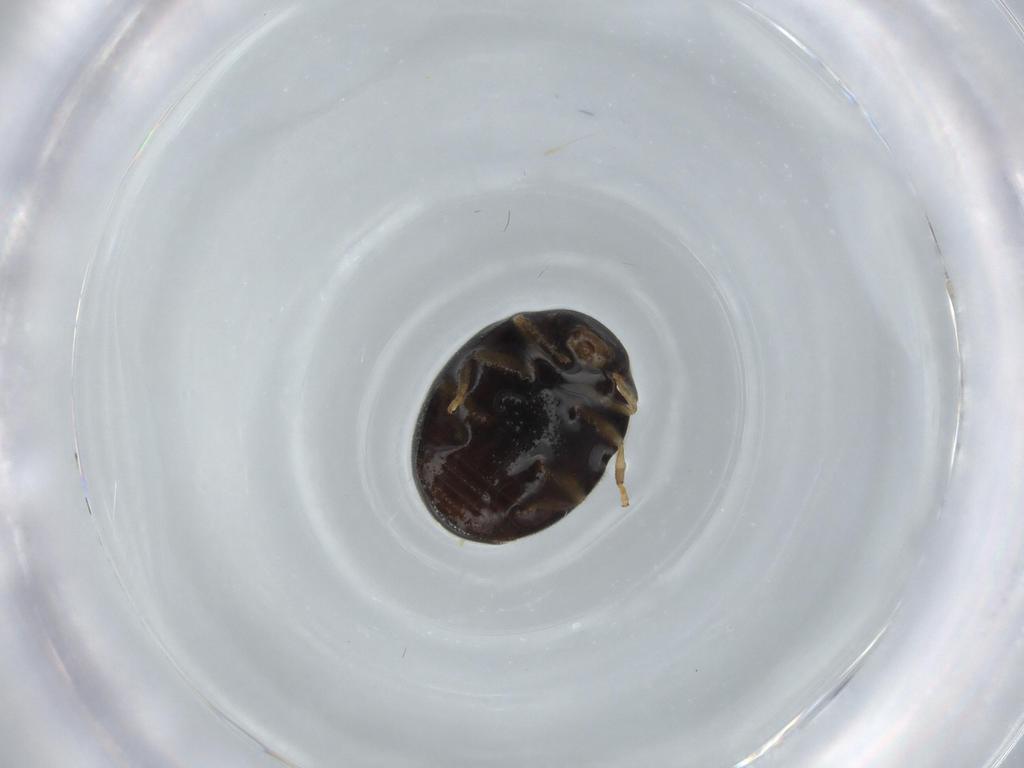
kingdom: Animalia
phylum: Arthropoda
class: Insecta
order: Coleoptera
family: Coccinellidae
